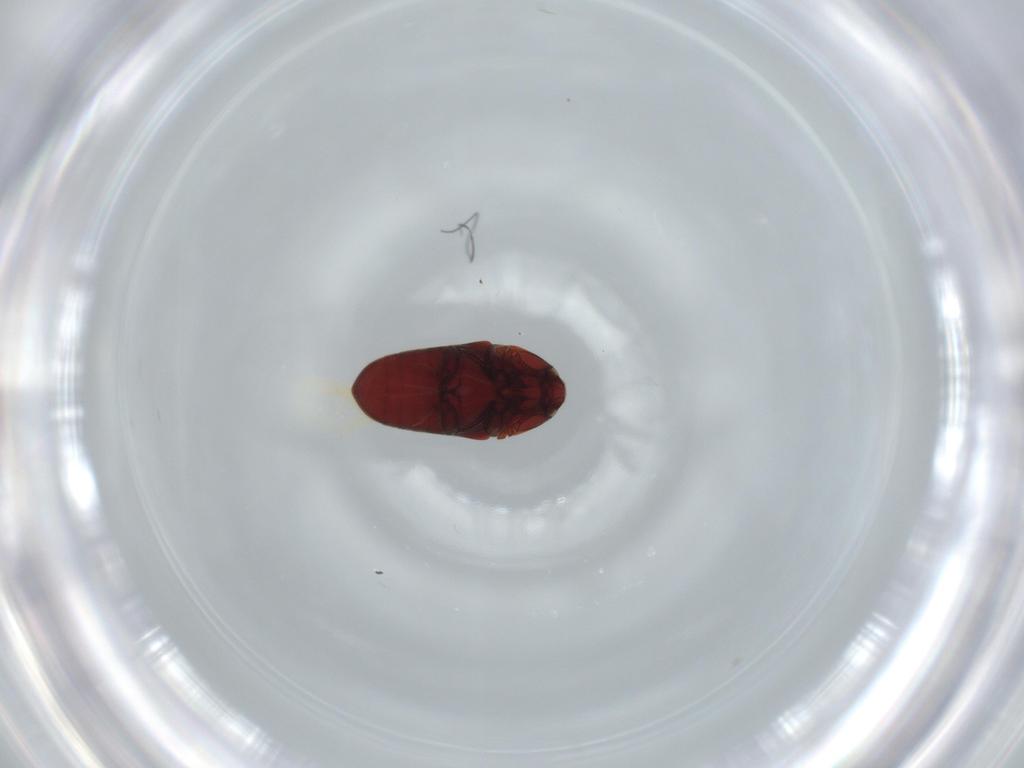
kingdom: Animalia
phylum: Arthropoda
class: Insecta
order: Coleoptera
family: Throscidae
